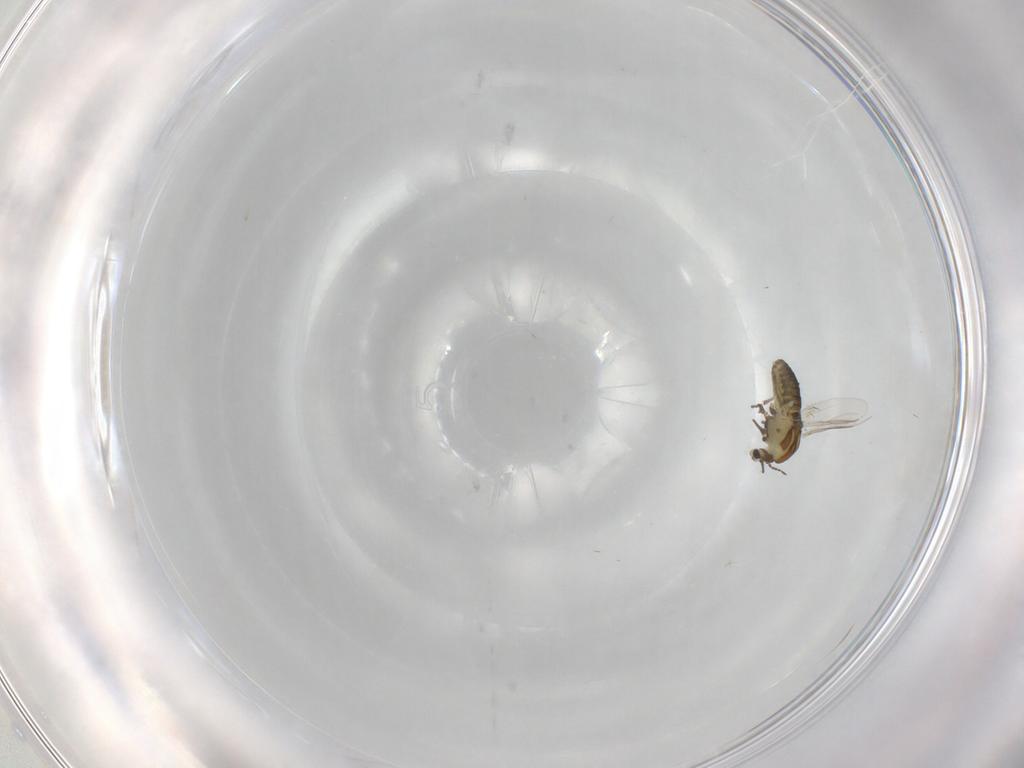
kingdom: Animalia
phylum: Arthropoda
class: Insecta
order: Diptera
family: Chironomidae
